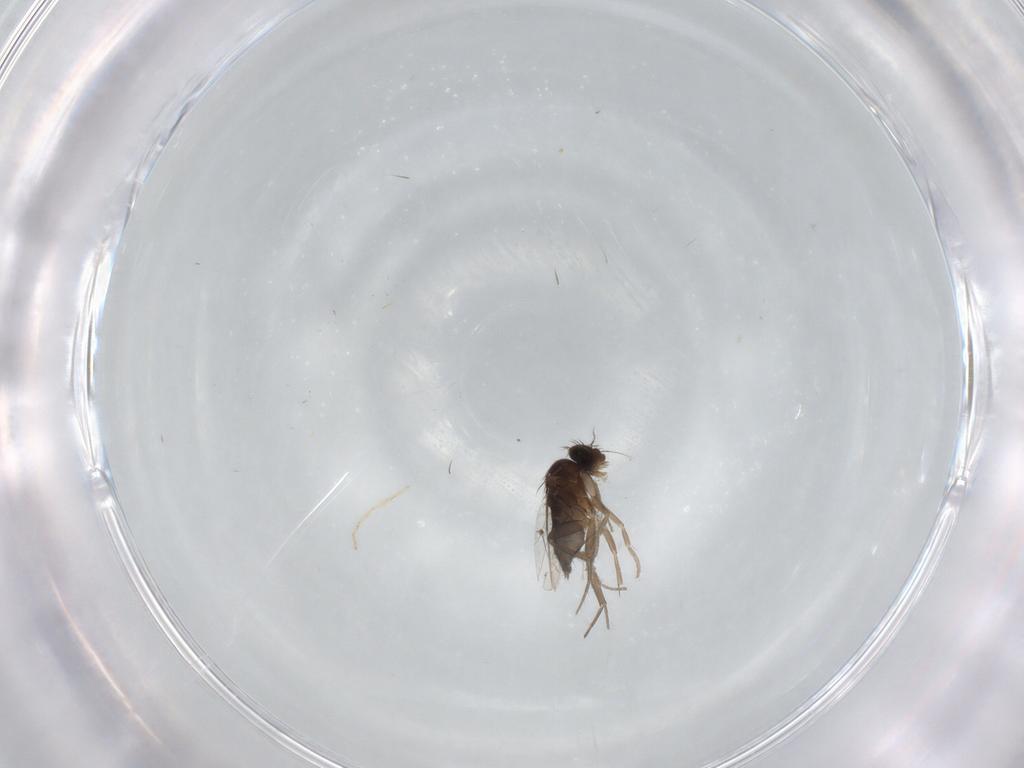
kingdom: Animalia
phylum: Arthropoda
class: Insecta
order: Diptera
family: Phoridae
